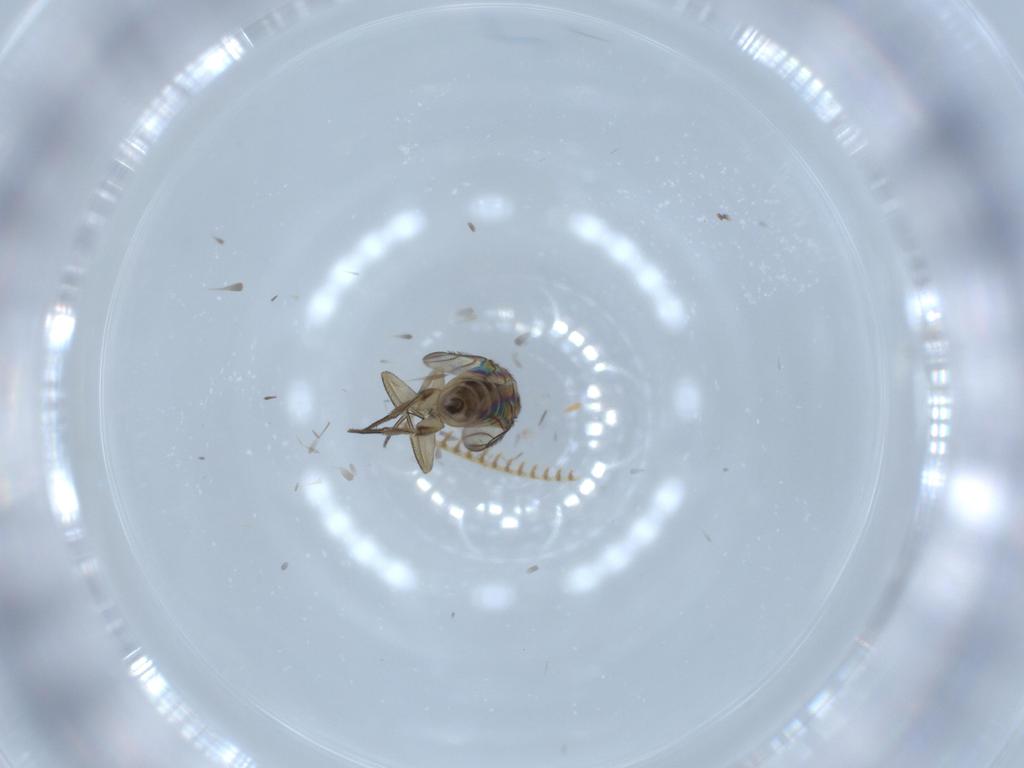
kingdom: Animalia
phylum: Arthropoda
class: Insecta
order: Diptera
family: Phoridae
